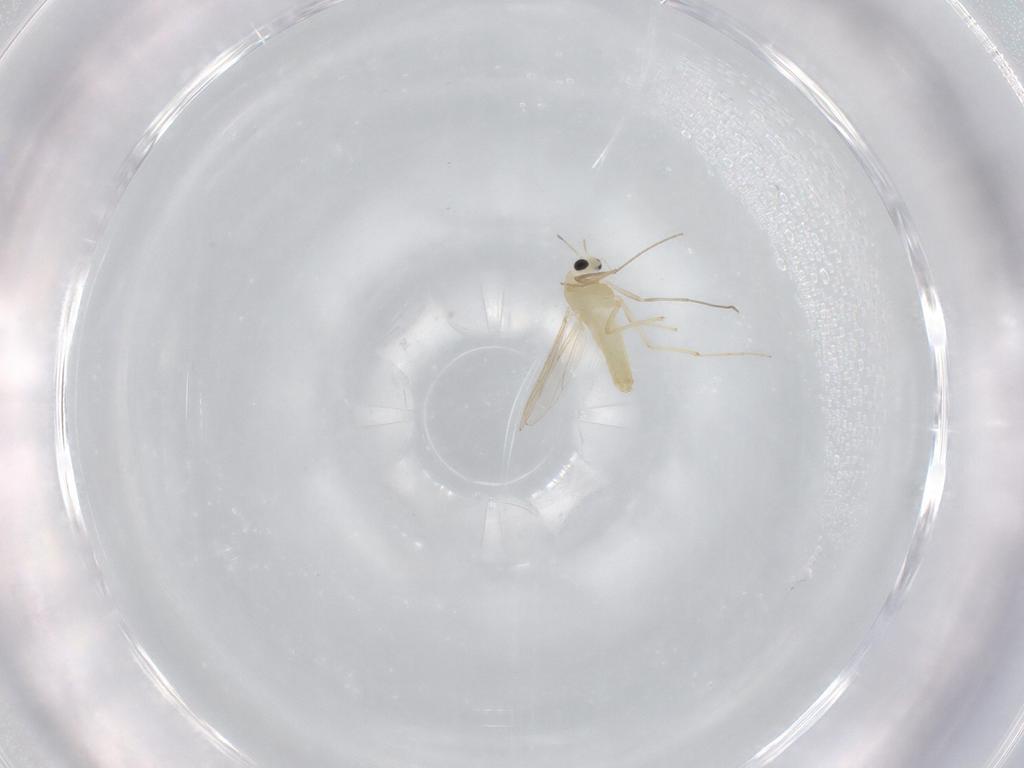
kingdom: Animalia
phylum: Arthropoda
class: Insecta
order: Diptera
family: Chironomidae
